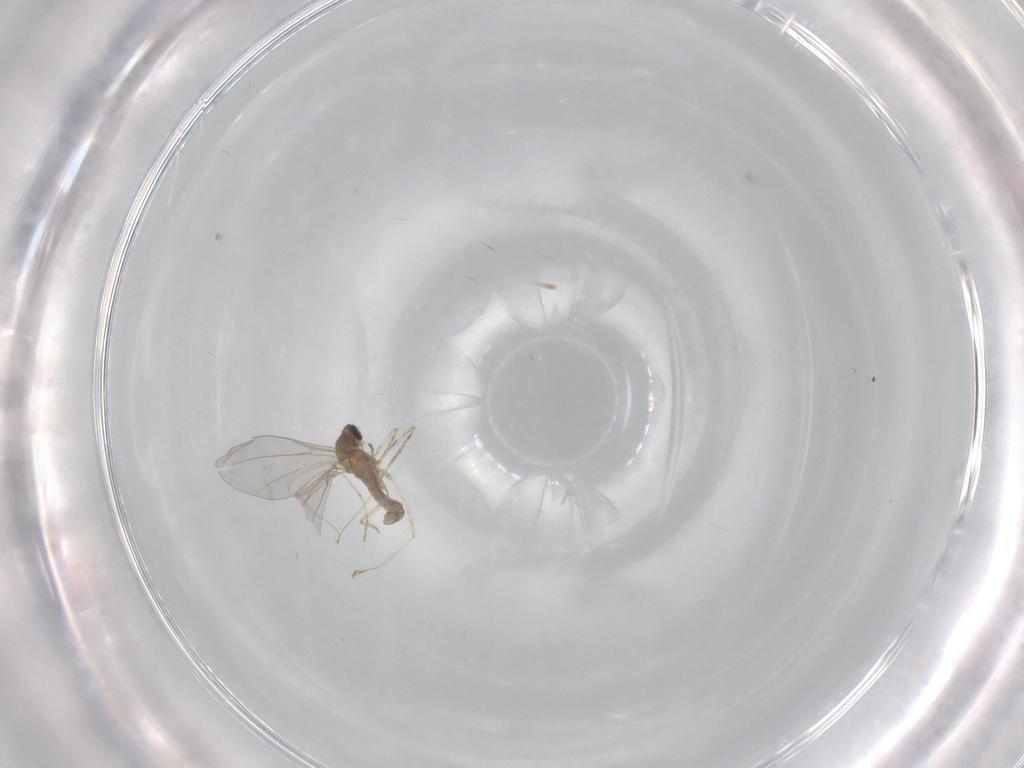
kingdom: Animalia
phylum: Arthropoda
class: Insecta
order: Diptera
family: Cecidomyiidae
